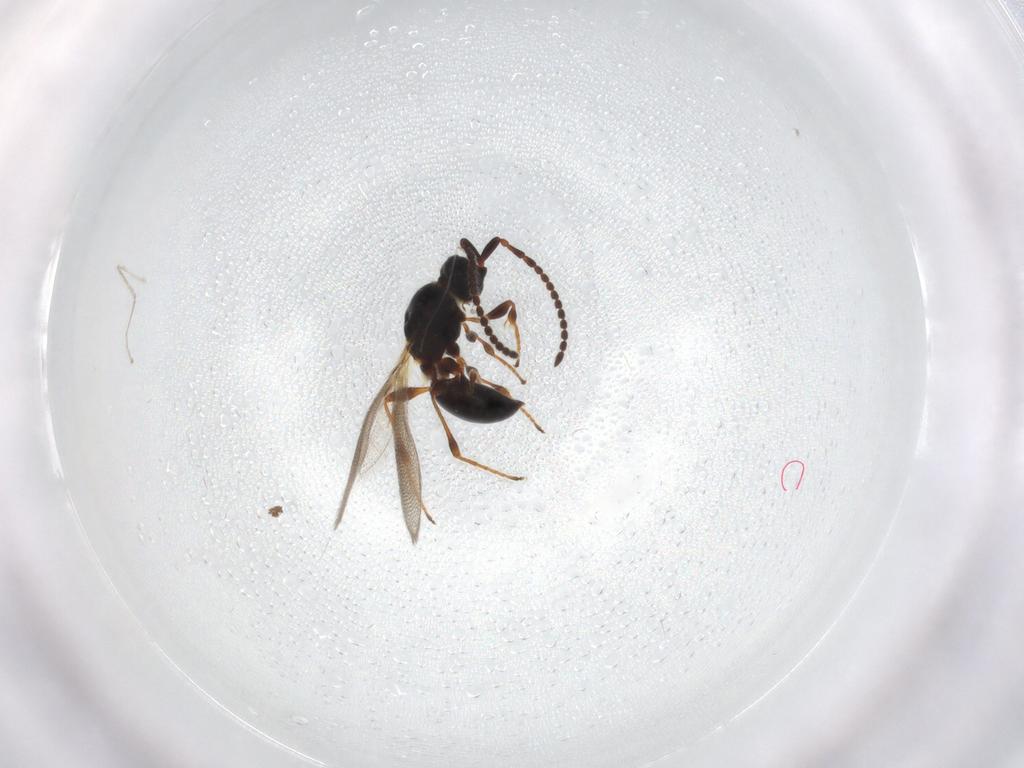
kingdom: Animalia
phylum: Arthropoda
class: Insecta
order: Hymenoptera
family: Diapriidae
